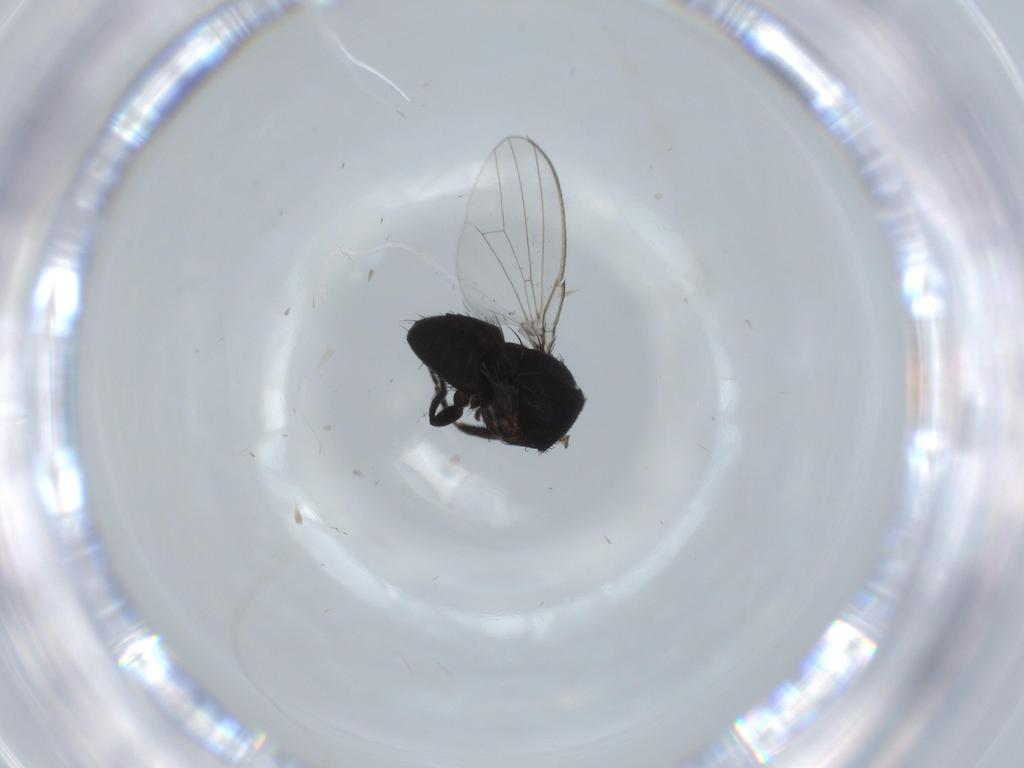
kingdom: Animalia
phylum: Arthropoda
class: Insecta
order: Diptera
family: Milichiidae
